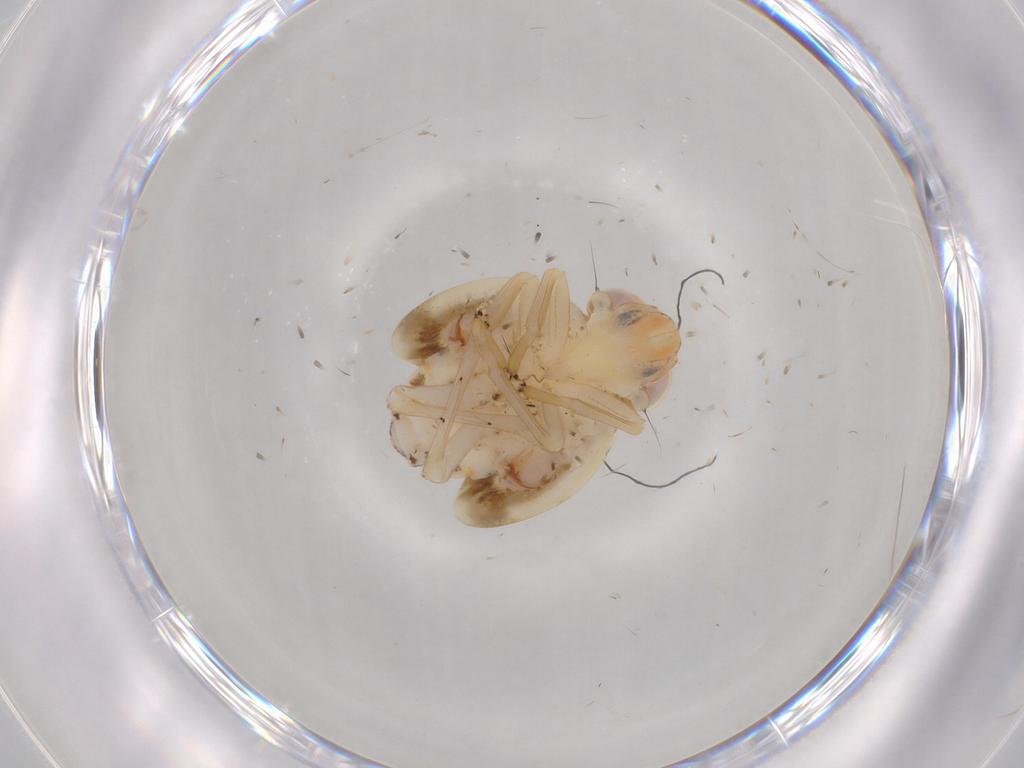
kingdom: Animalia
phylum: Arthropoda
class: Insecta
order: Hemiptera
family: Nogodinidae
